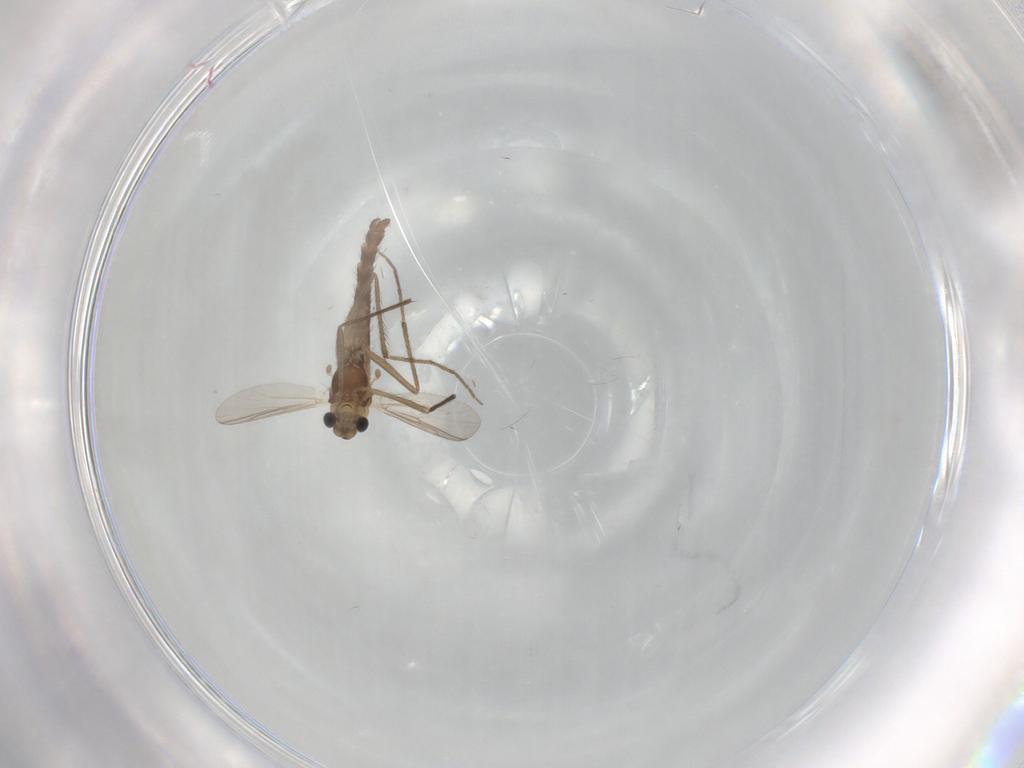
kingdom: Animalia
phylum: Arthropoda
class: Insecta
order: Diptera
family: Chironomidae
